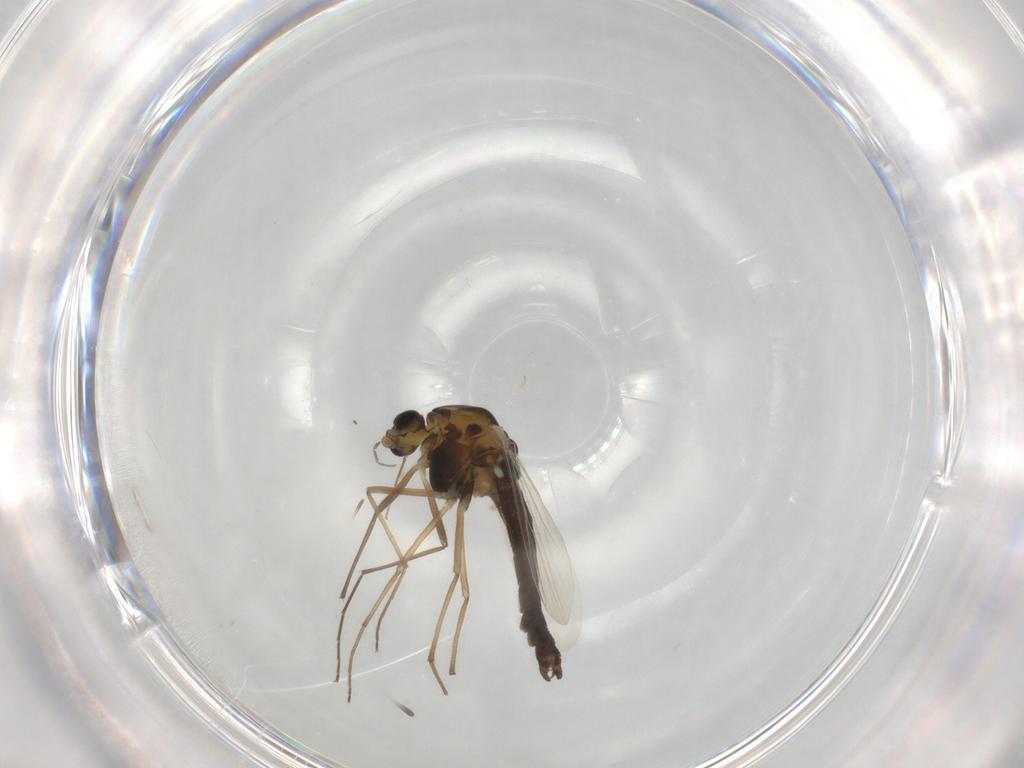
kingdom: Animalia
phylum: Arthropoda
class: Insecta
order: Diptera
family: Chironomidae
